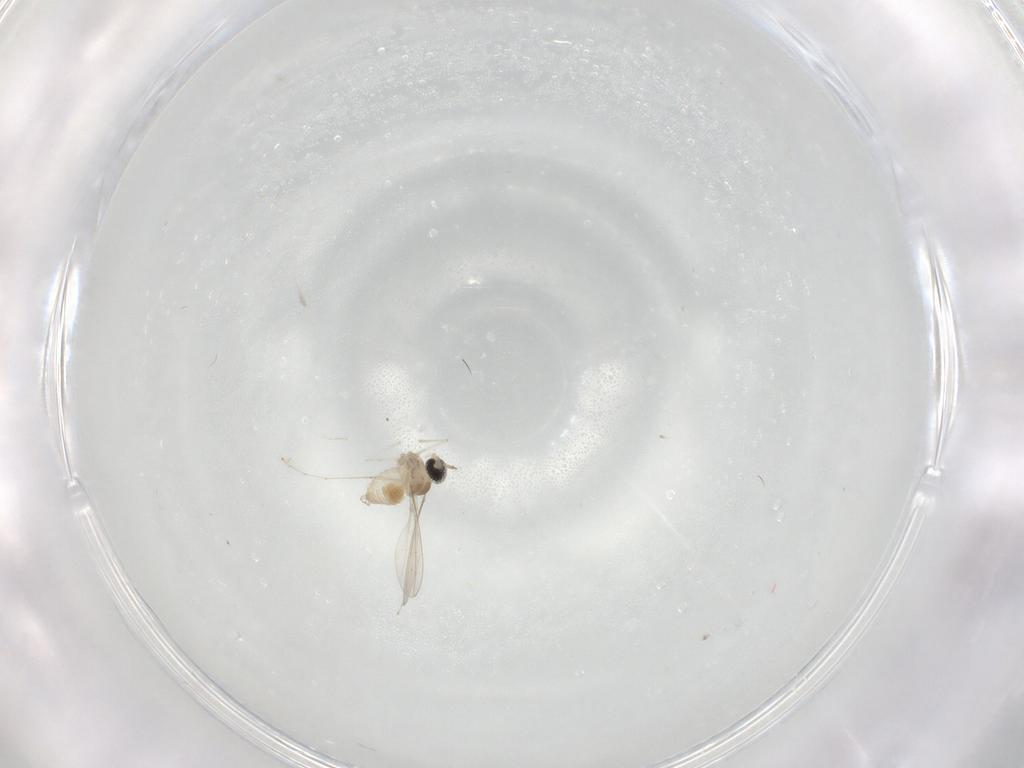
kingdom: Animalia
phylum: Arthropoda
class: Insecta
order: Diptera
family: Cecidomyiidae
